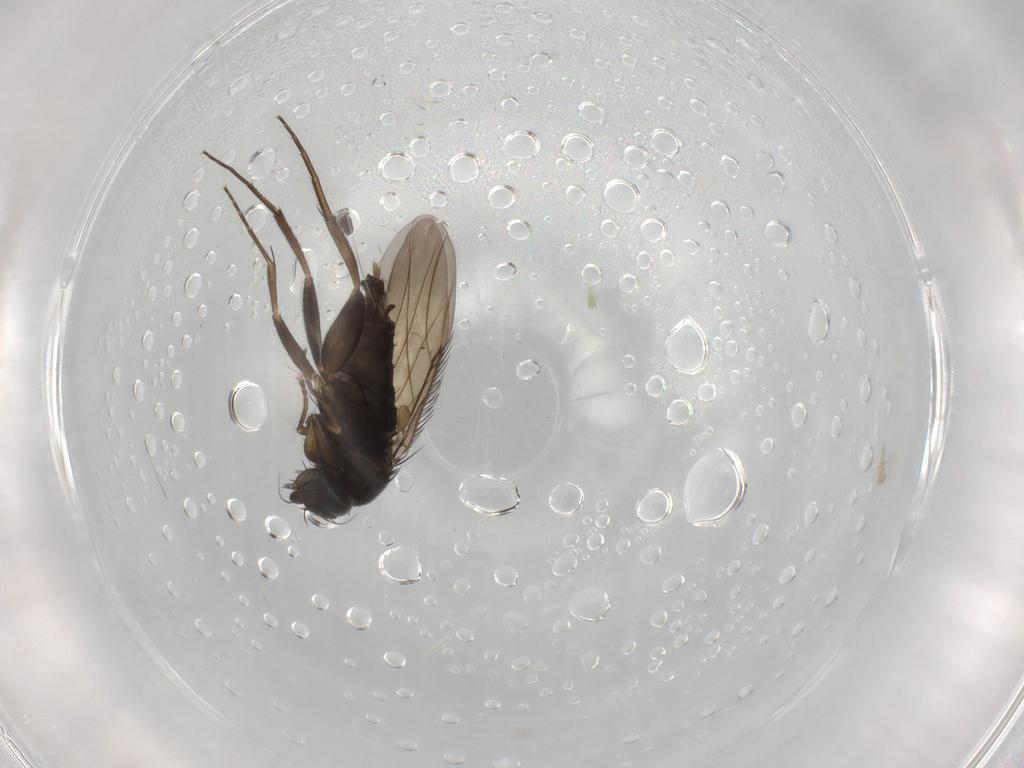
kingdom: Animalia
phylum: Arthropoda
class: Insecta
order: Diptera
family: Phoridae
